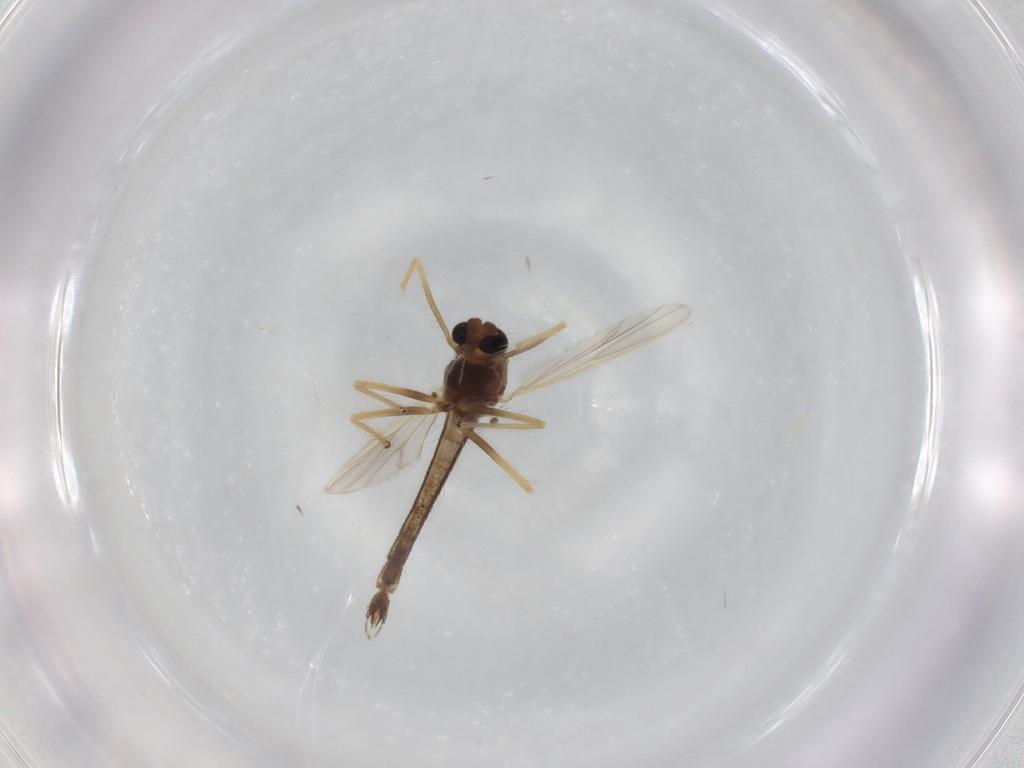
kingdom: Animalia
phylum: Arthropoda
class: Insecta
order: Diptera
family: Chironomidae
